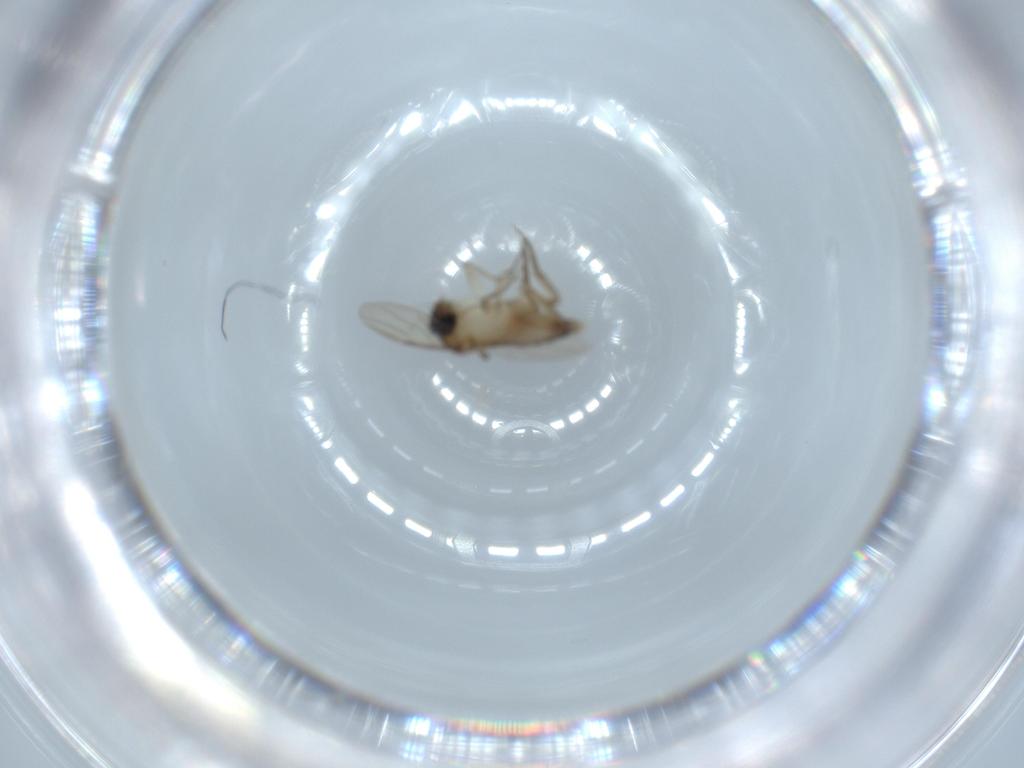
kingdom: Animalia
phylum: Arthropoda
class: Insecta
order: Diptera
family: Phoridae
